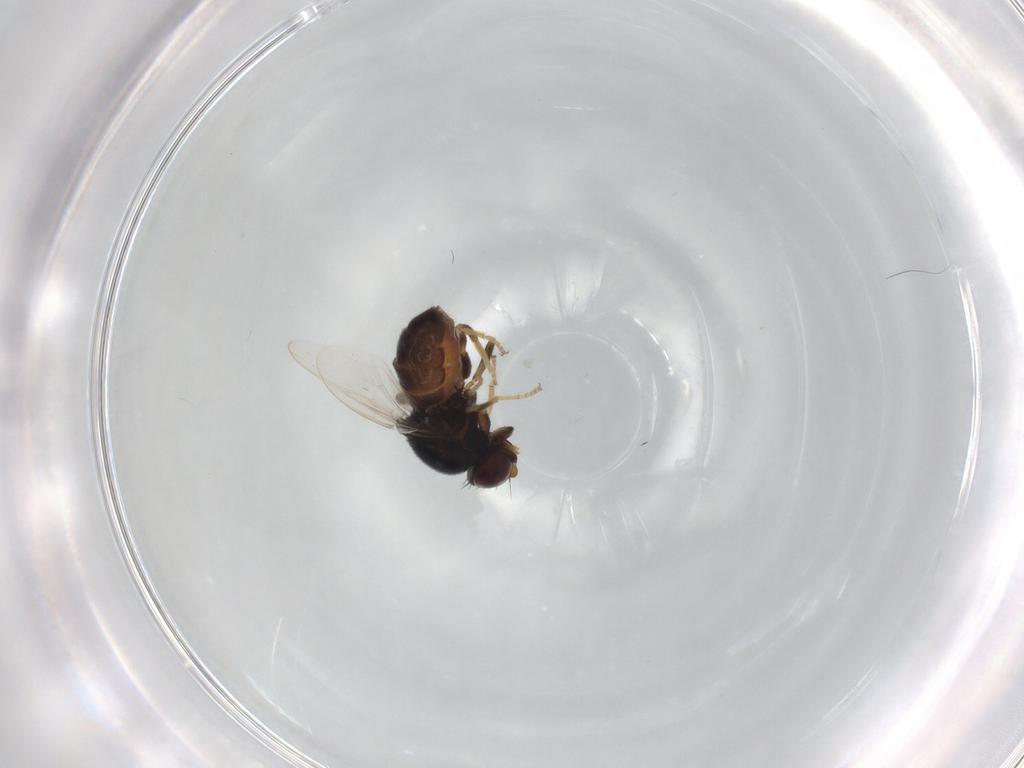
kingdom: Animalia
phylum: Arthropoda
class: Insecta
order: Diptera
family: Chloropidae
